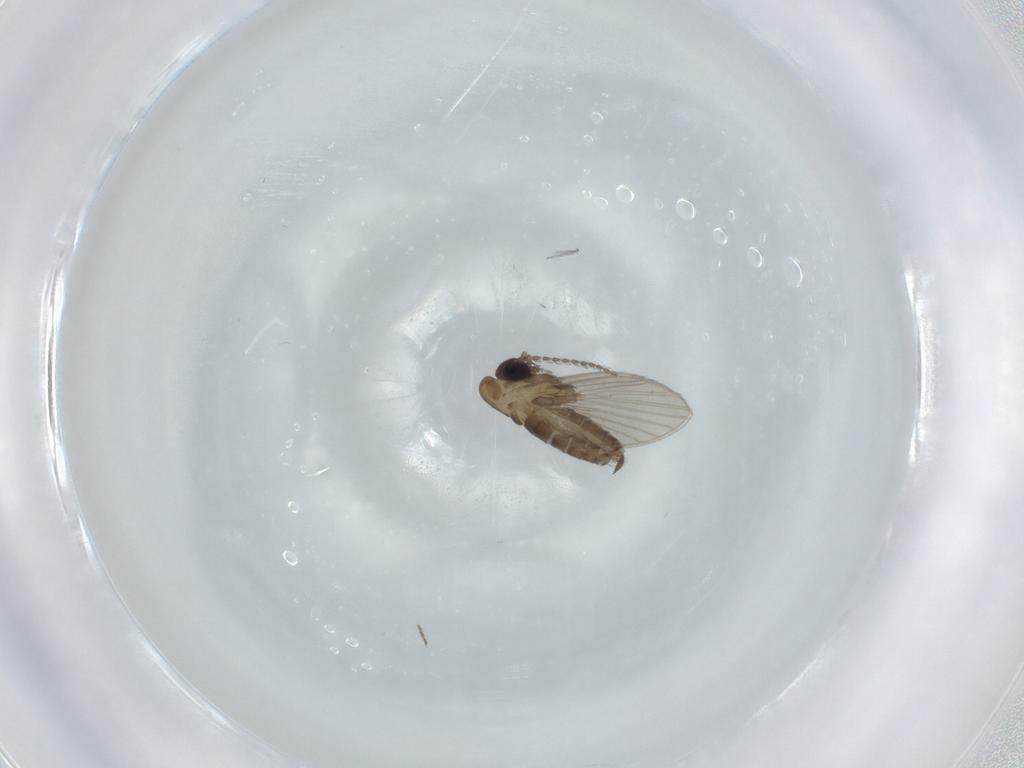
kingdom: Animalia
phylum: Arthropoda
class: Insecta
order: Diptera
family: Psychodidae
